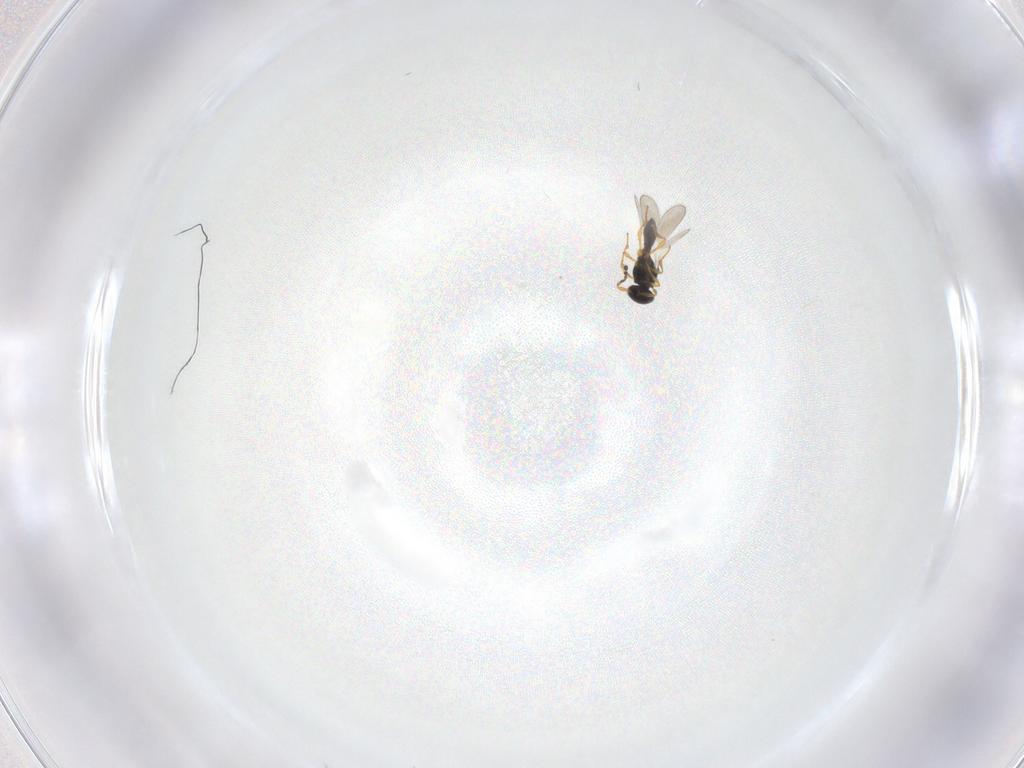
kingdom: Animalia
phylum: Arthropoda
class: Insecta
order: Hymenoptera
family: Platygastridae
